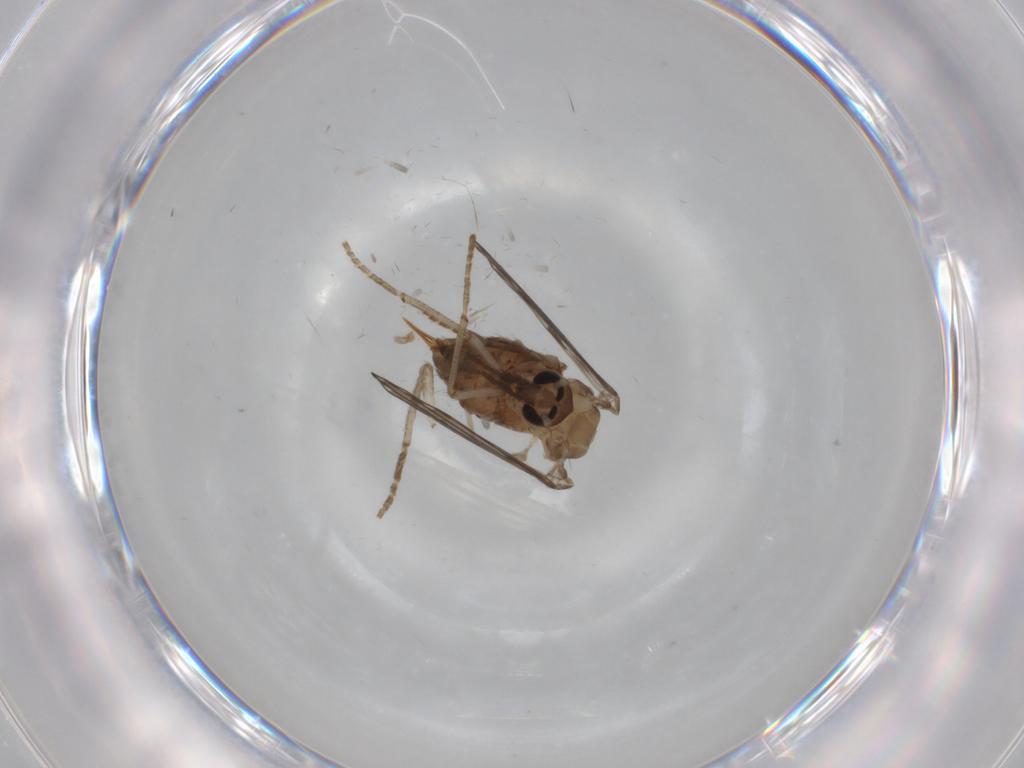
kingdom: Animalia
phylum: Arthropoda
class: Insecta
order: Diptera
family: Psychodidae
